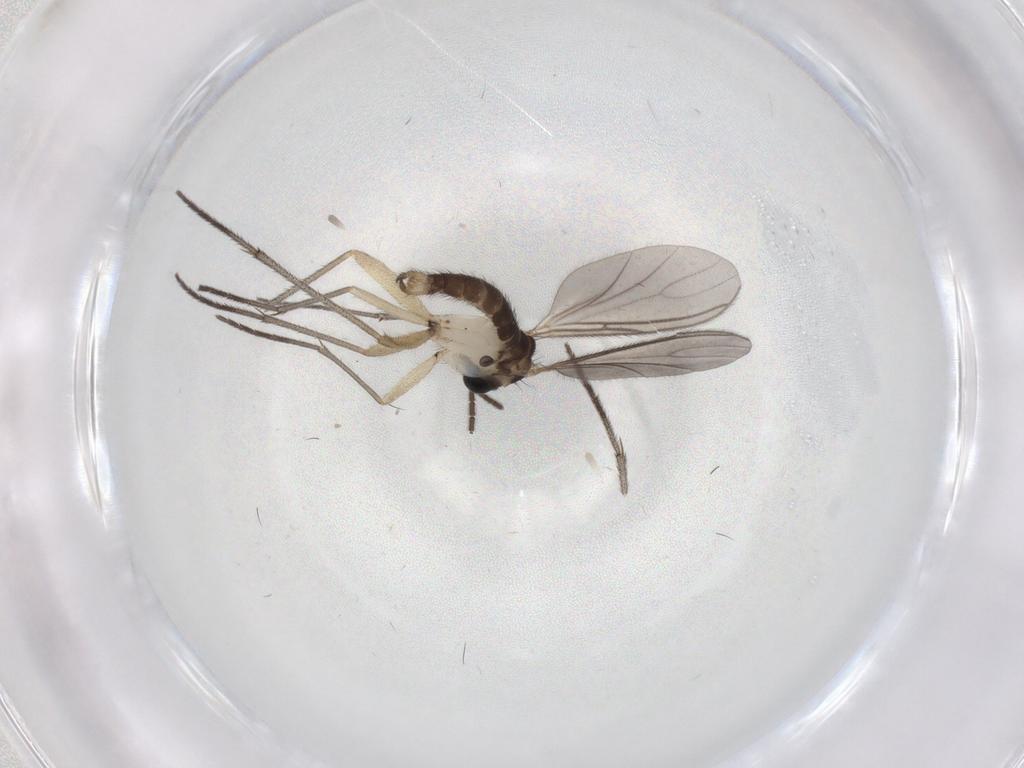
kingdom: Animalia
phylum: Arthropoda
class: Insecta
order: Diptera
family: Sciaridae
